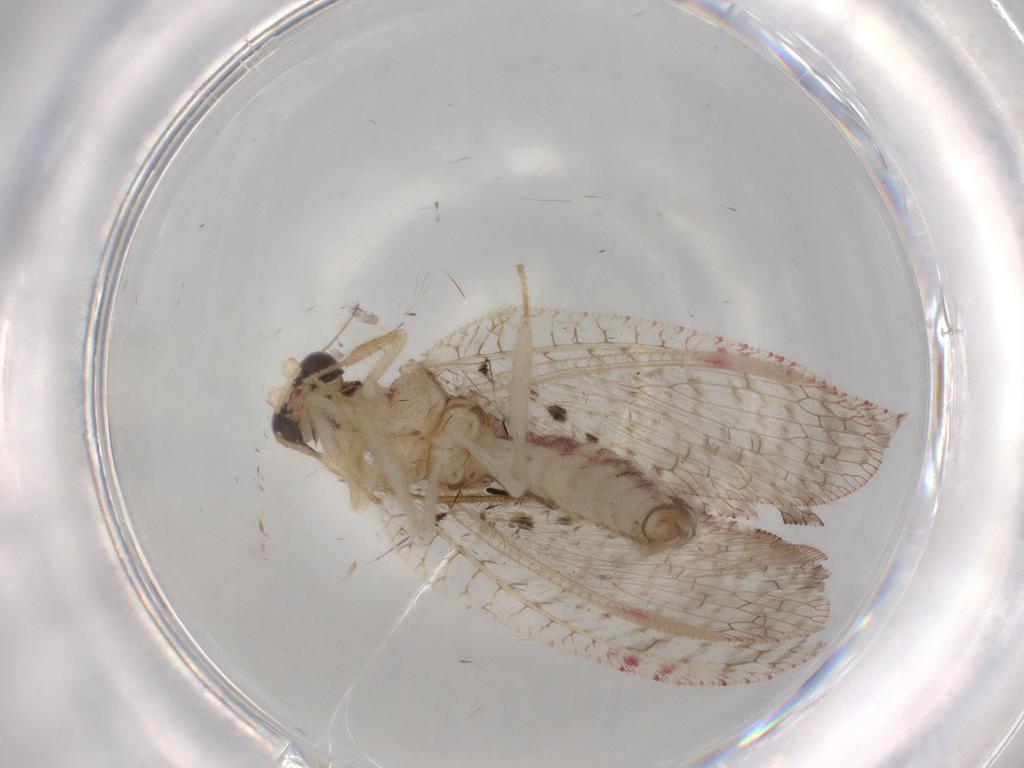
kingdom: Animalia
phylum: Arthropoda
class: Insecta
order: Neuroptera
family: Hemerobiidae
